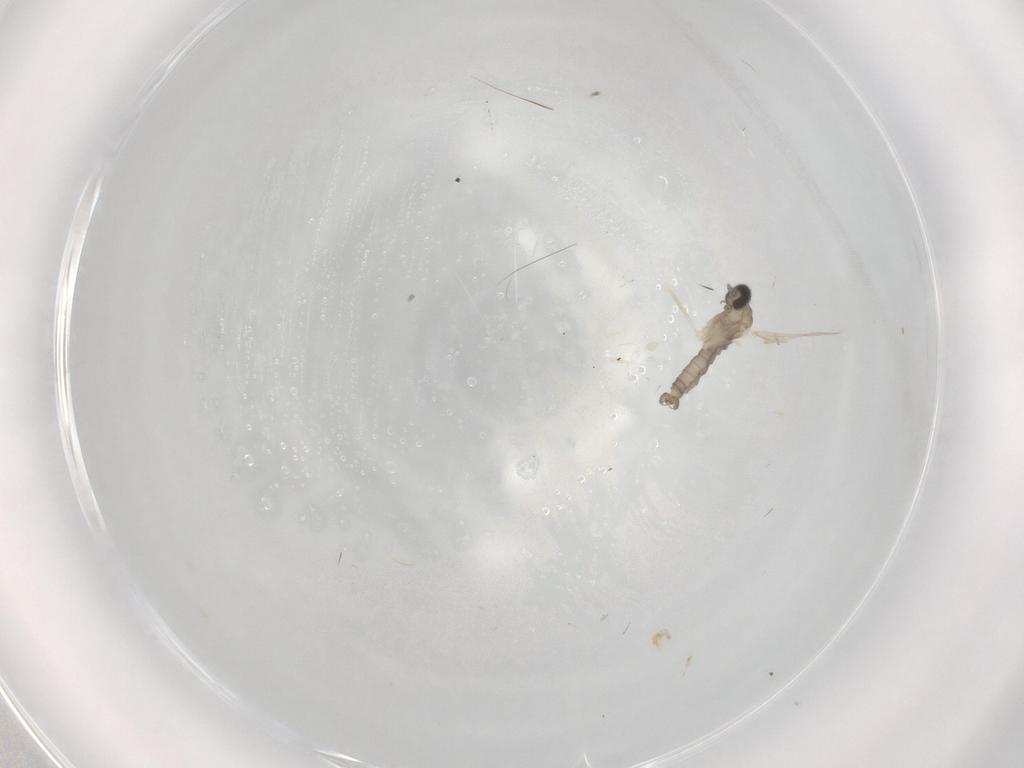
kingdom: Animalia
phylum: Arthropoda
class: Insecta
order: Diptera
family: Cecidomyiidae
